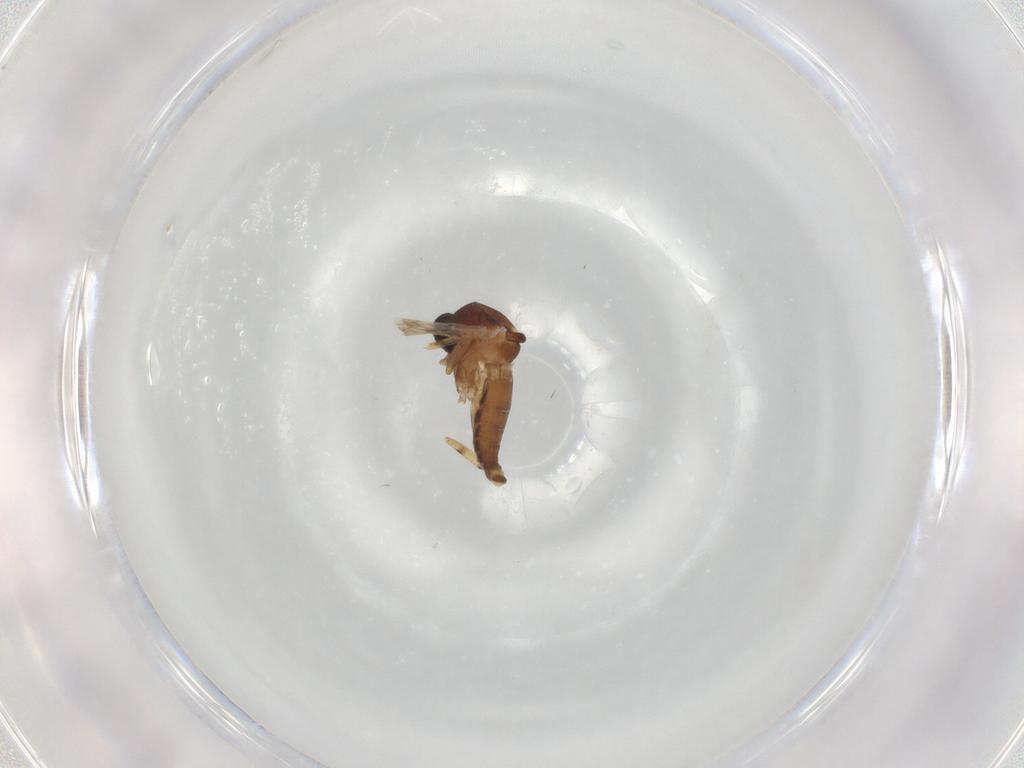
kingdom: Animalia
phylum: Arthropoda
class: Insecta
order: Diptera
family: Ceratopogonidae
